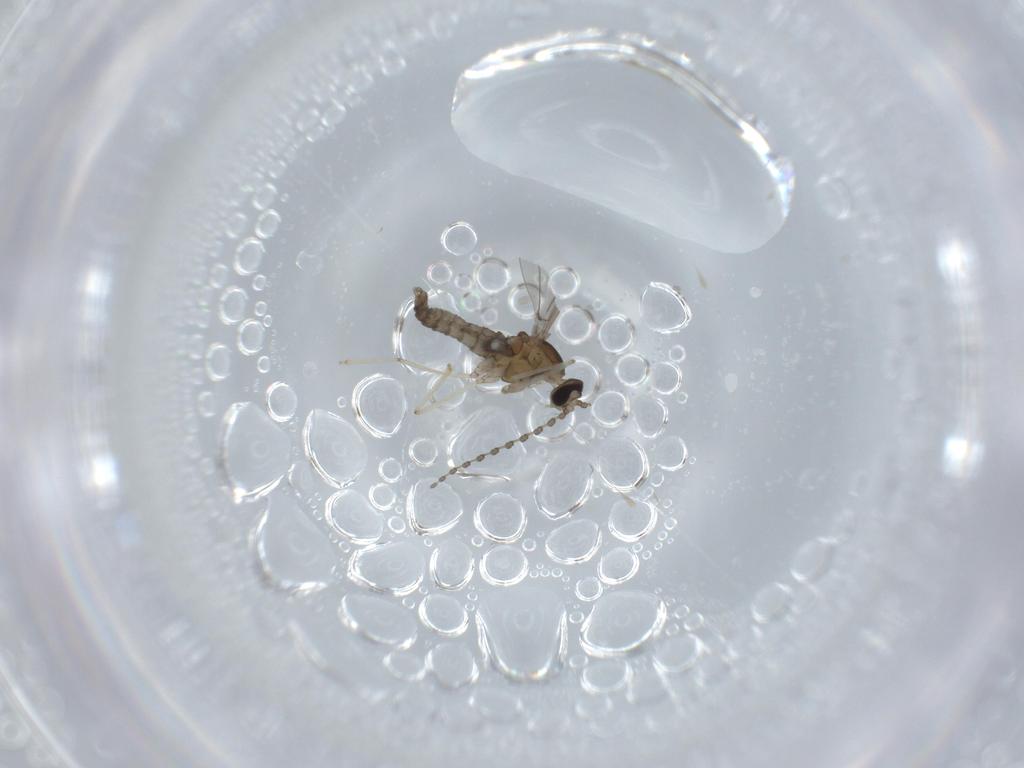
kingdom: Animalia
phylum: Arthropoda
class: Insecta
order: Diptera
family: Cecidomyiidae
